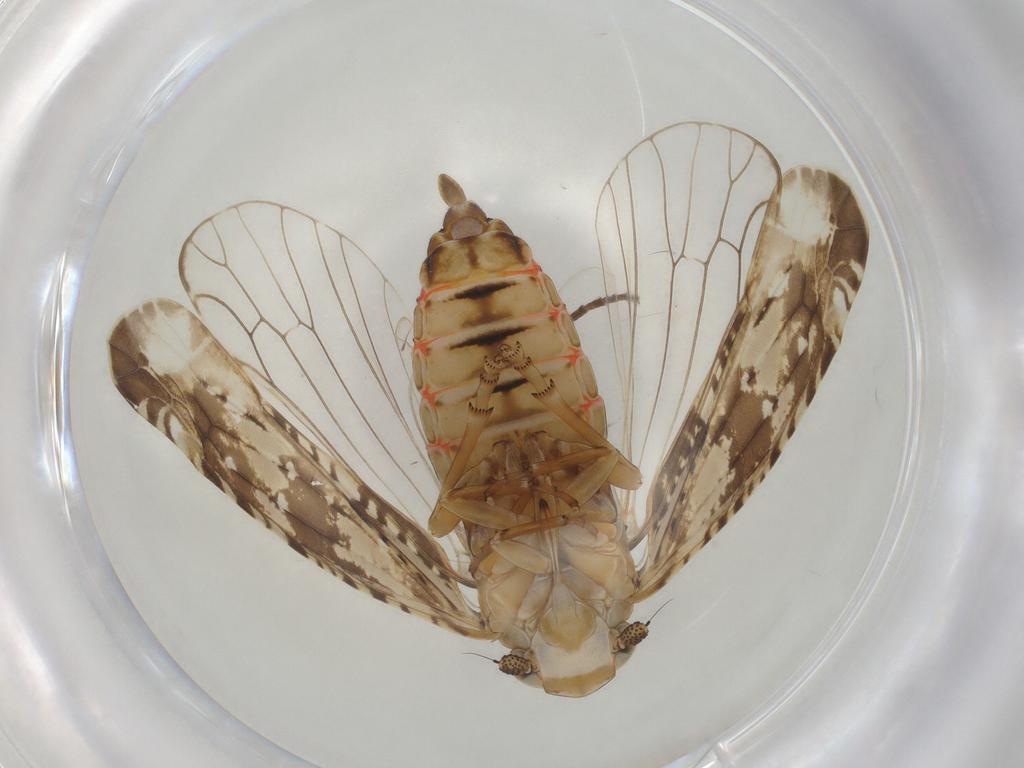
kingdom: Animalia
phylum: Arthropoda
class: Insecta
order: Hemiptera
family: Achilidae
